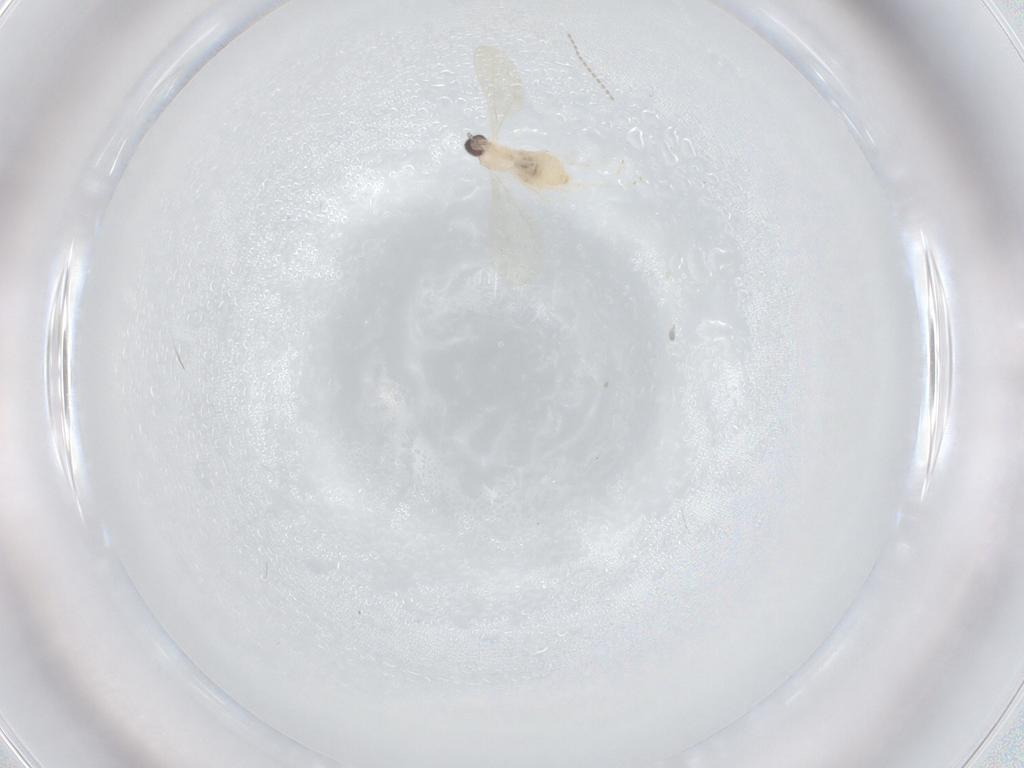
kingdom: Animalia
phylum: Arthropoda
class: Insecta
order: Diptera
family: Cecidomyiidae
